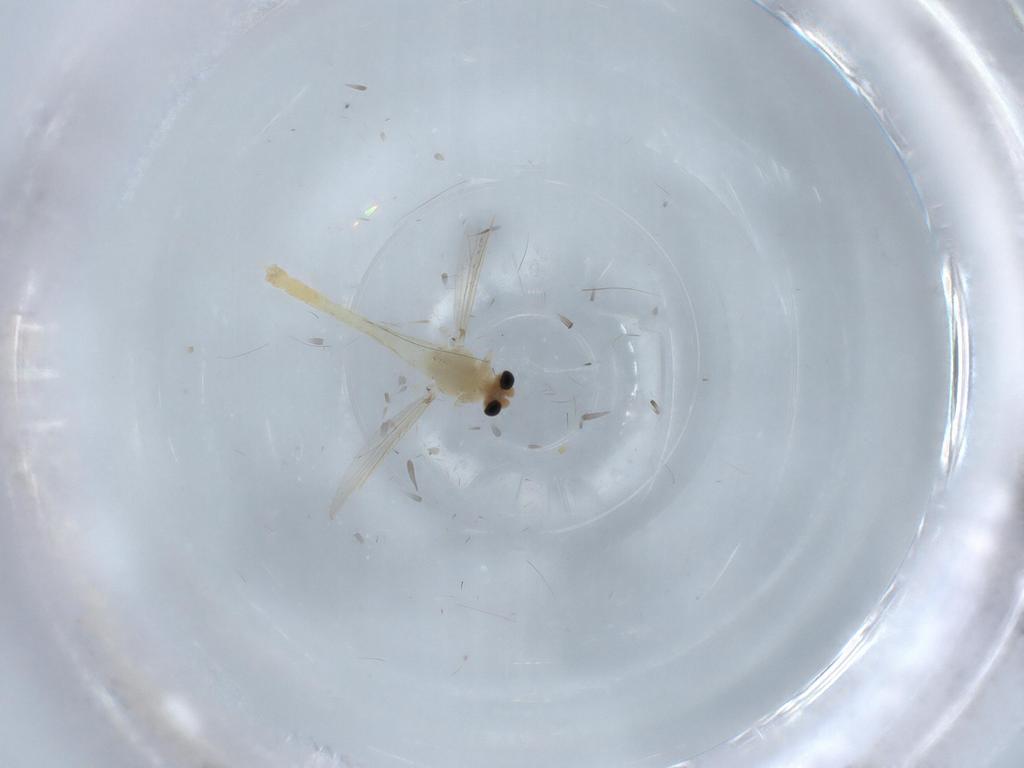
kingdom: Animalia
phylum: Arthropoda
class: Insecta
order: Diptera
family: Chironomidae
